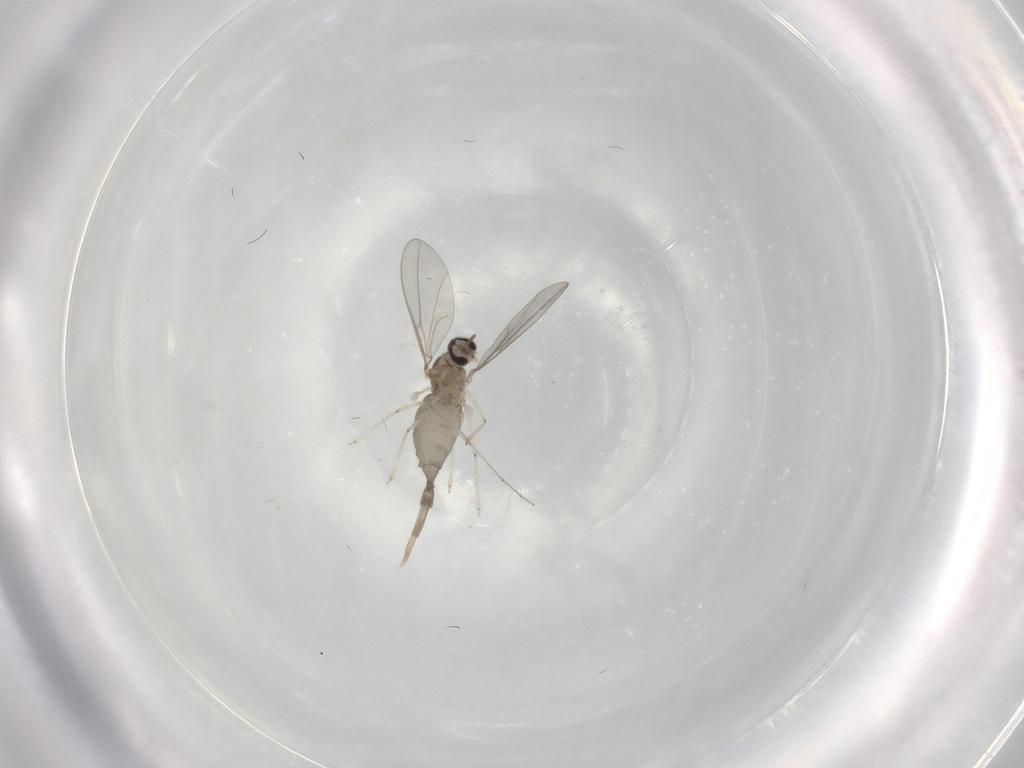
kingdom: Animalia
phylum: Arthropoda
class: Insecta
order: Diptera
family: Cecidomyiidae
